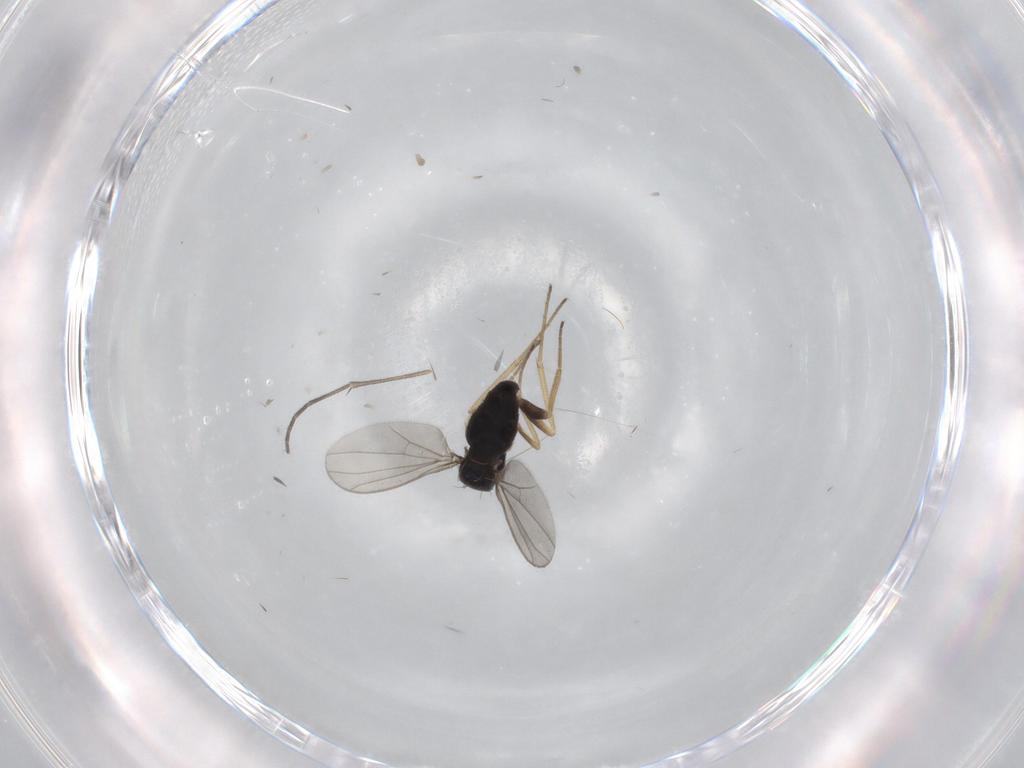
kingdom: Animalia
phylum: Arthropoda
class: Insecta
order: Diptera
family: Sciaridae
